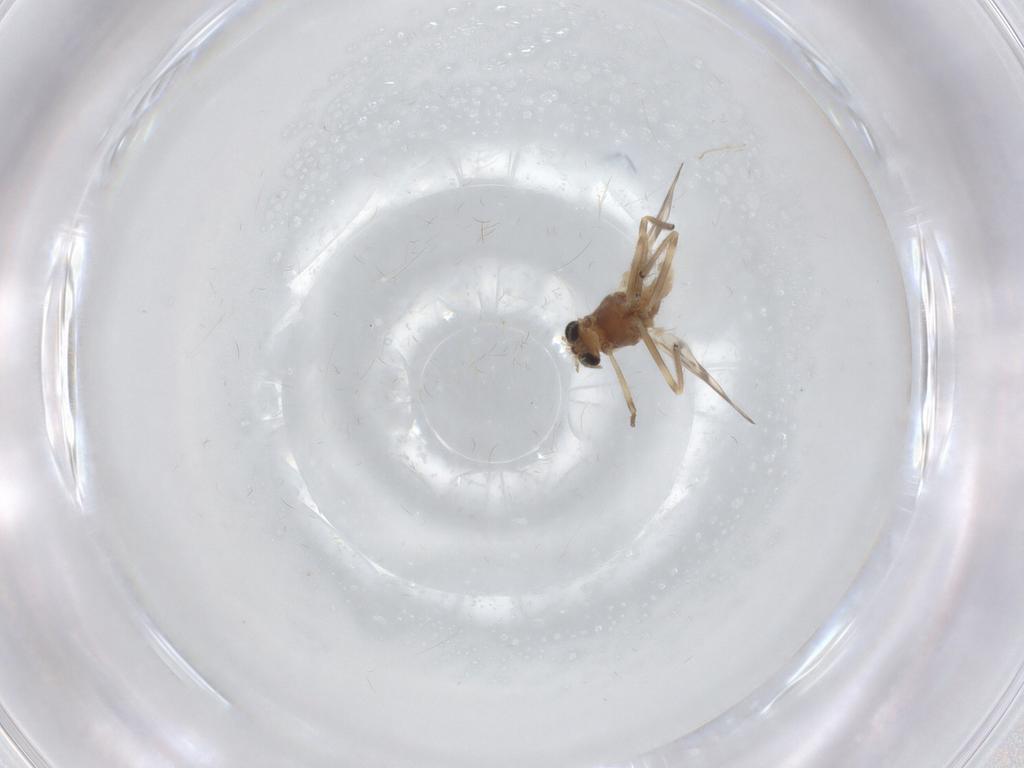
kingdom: Animalia
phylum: Arthropoda
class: Insecta
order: Diptera
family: Chironomidae
